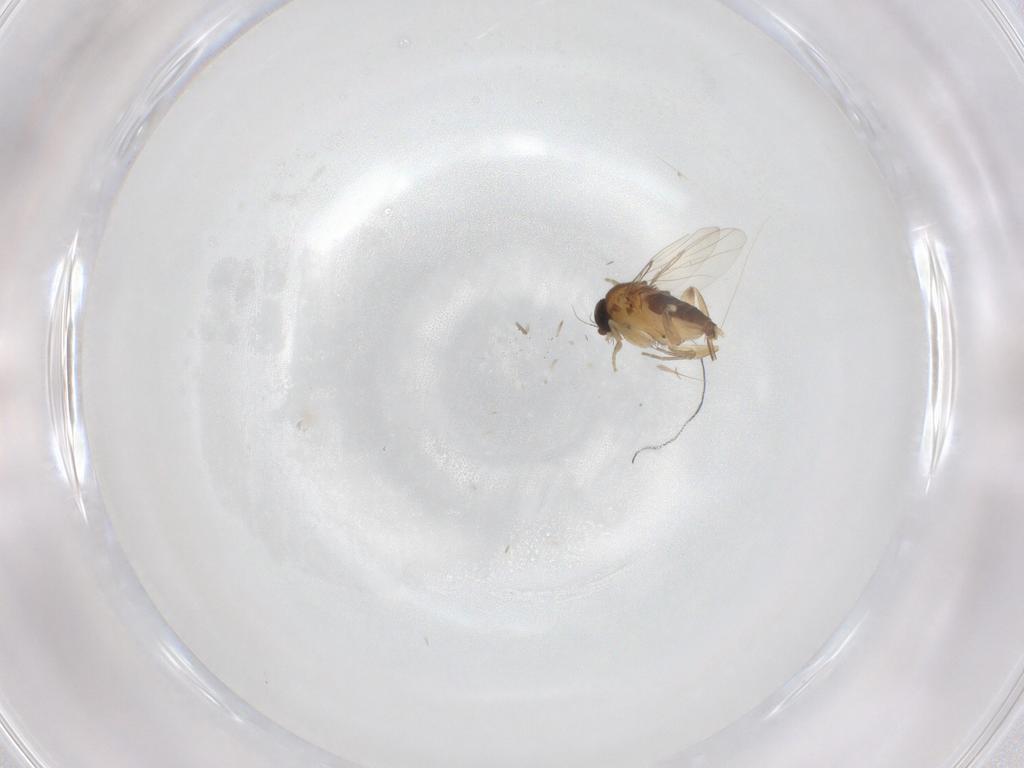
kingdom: Animalia
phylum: Arthropoda
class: Insecta
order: Diptera
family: Phoridae
